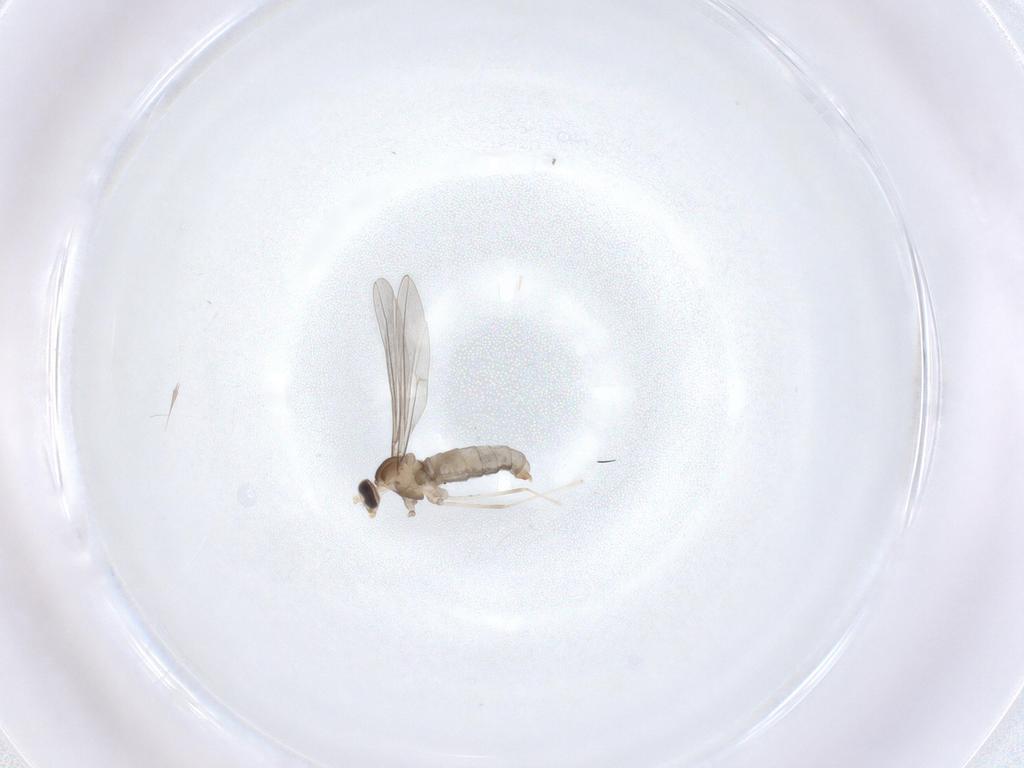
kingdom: Animalia
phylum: Arthropoda
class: Insecta
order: Diptera
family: Cecidomyiidae
